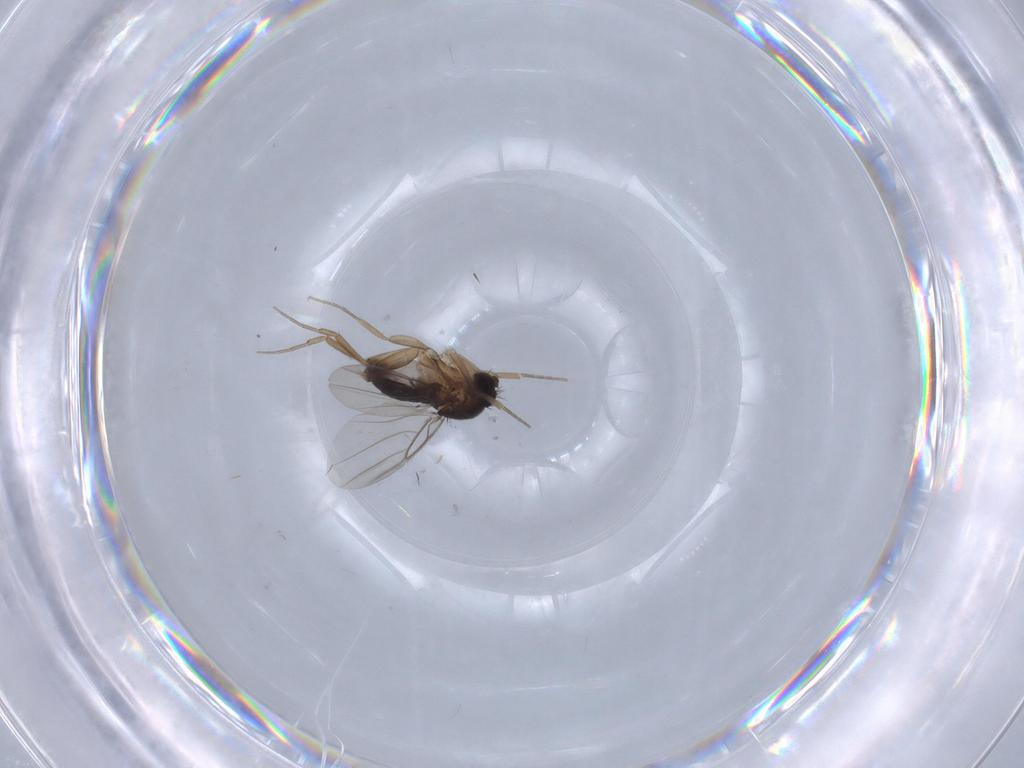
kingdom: Animalia
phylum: Arthropoda
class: Insecta
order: Diptera
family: Phoridae
